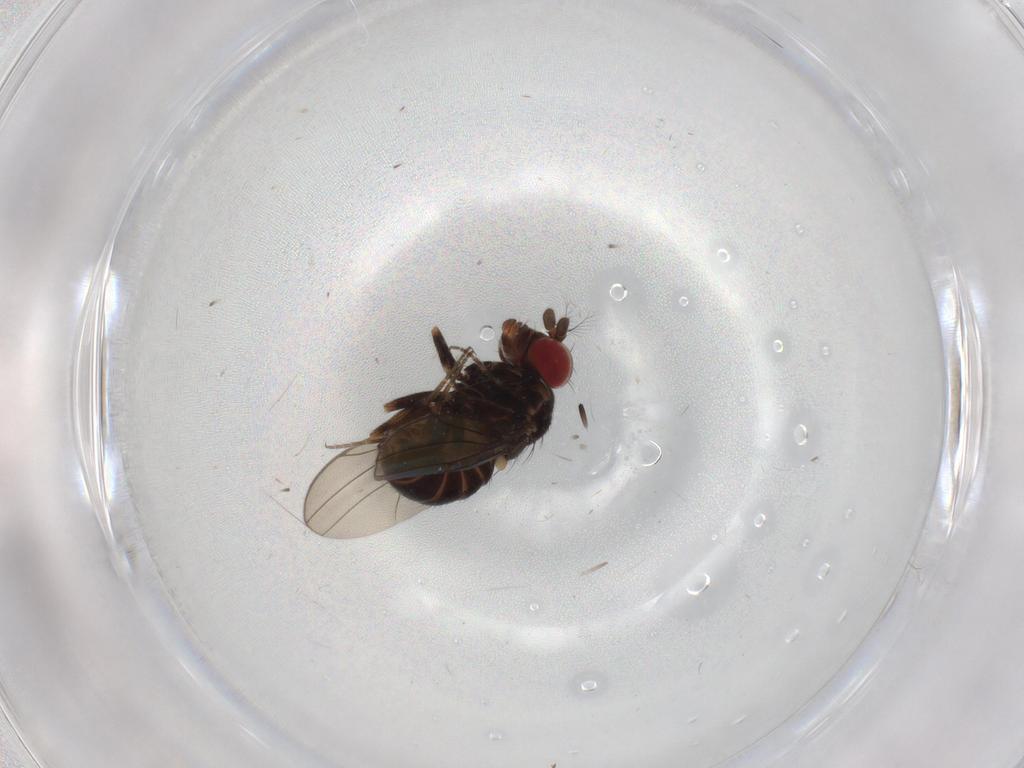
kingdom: Animalia
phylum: Arthropoda
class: Insecta
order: Diptera
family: Ephydridae
